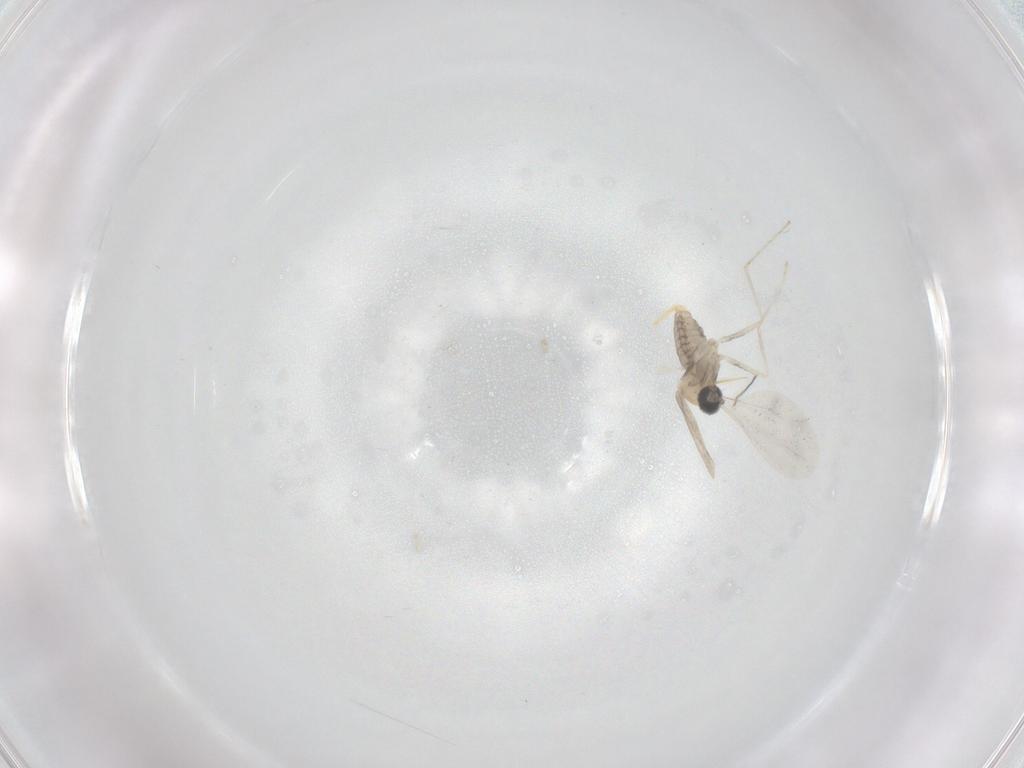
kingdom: Animalia
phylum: Arthropoda
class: Insecta
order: Diptera
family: Cecidomyiidae
